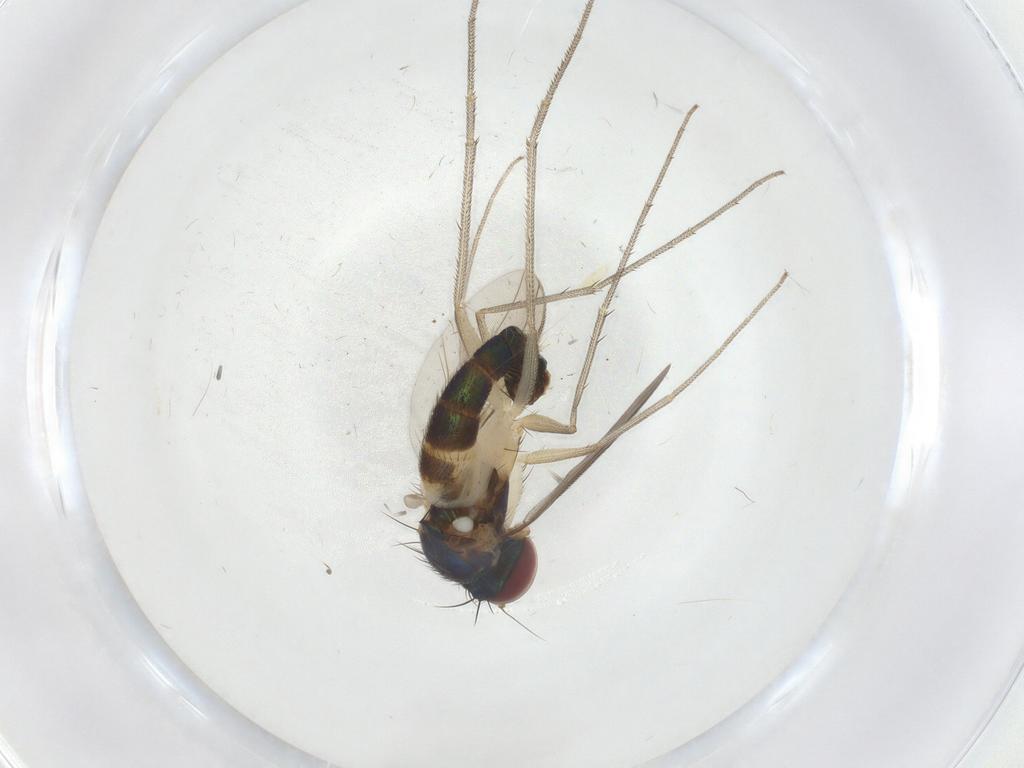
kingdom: Animalia
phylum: Arthropoda
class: Insecta
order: Diptera
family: Dolichopodidae
